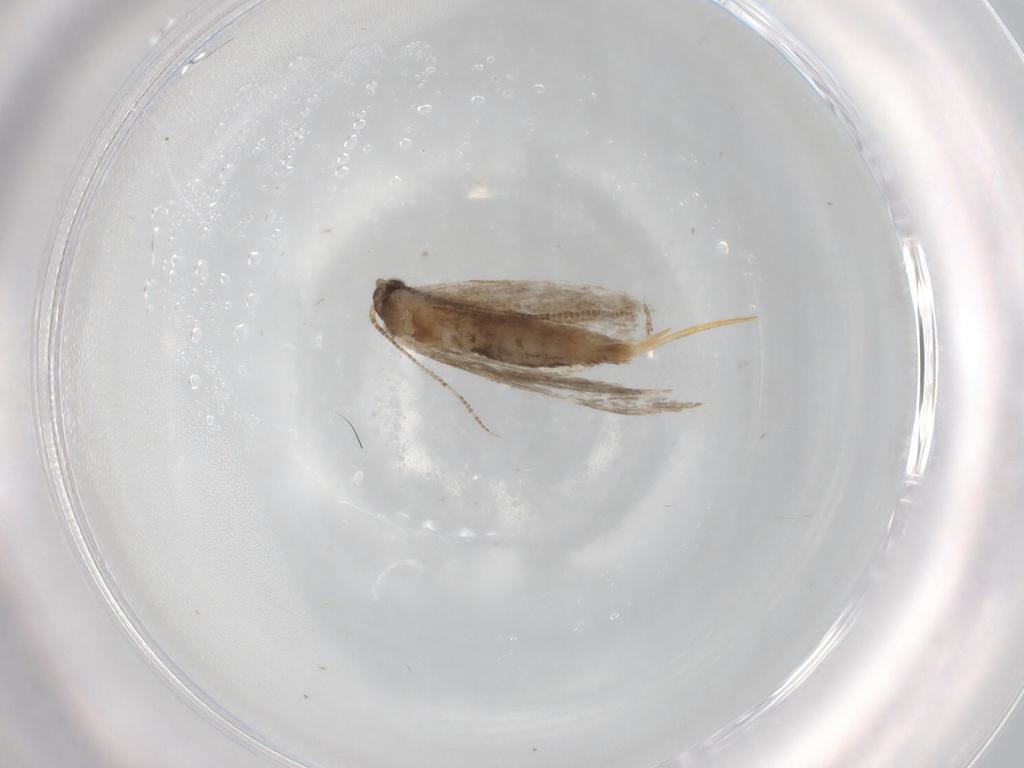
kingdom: Animalia
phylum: Arthropoda
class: Insecta
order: Lepidoptera
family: Tineidae
